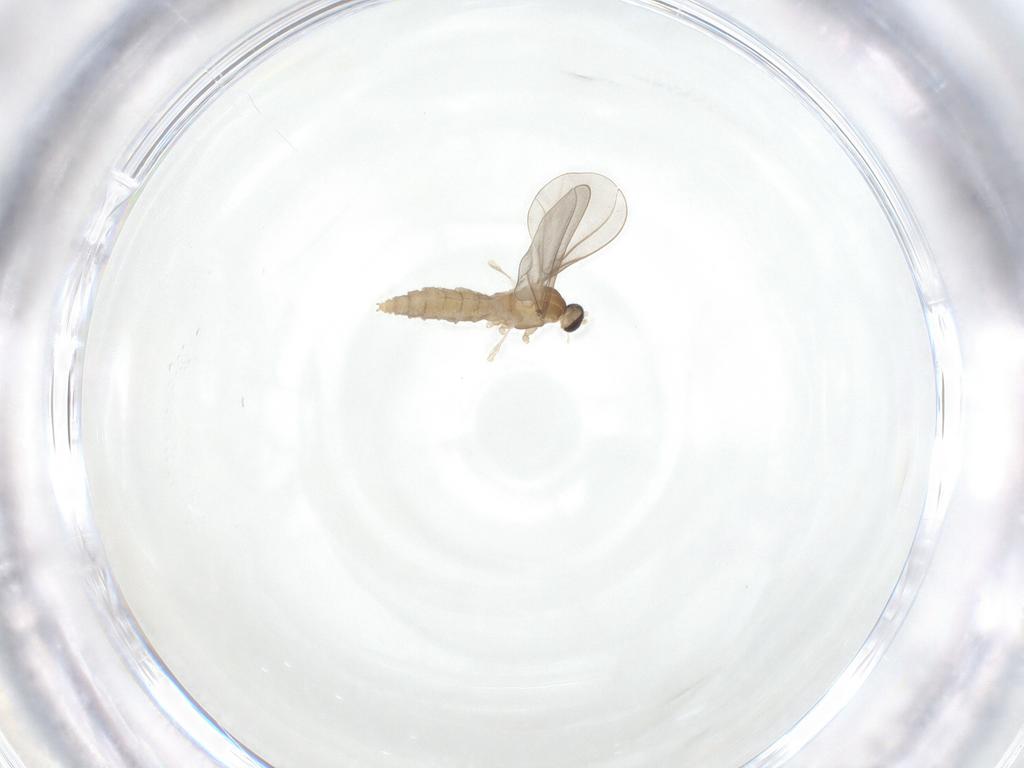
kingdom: Animalia
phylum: Arthropoda
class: Insecta
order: Diptera
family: Cecidomyiidae
